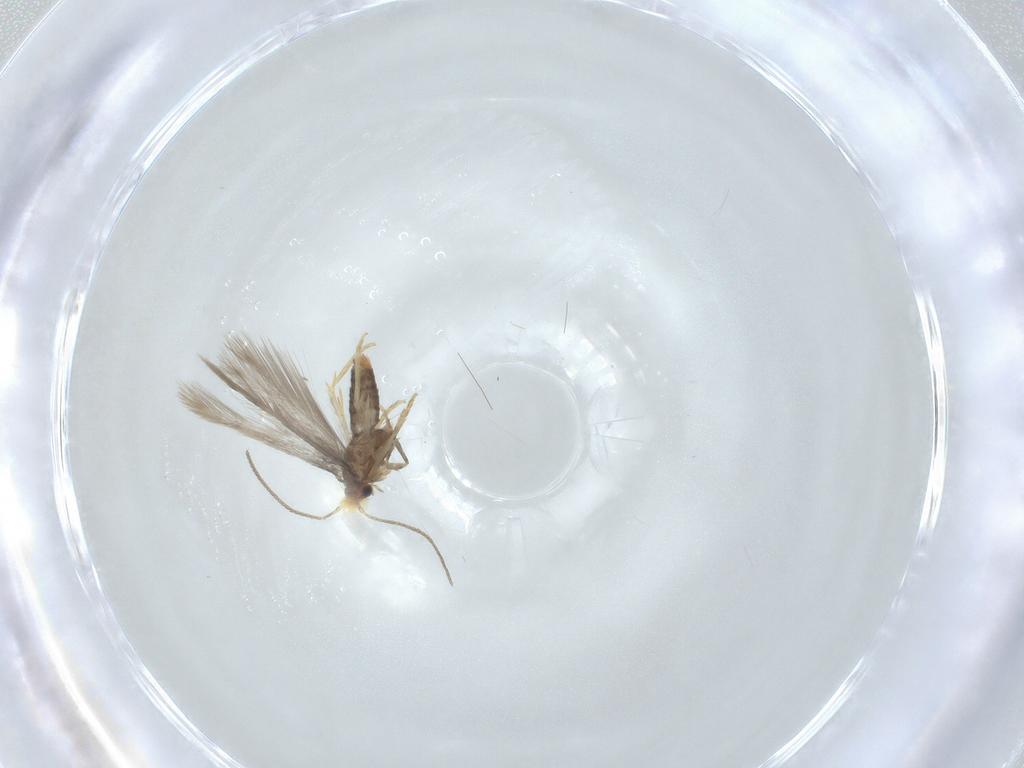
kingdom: Animalia
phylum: Arthropoda
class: Insecta
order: Lepidoptera
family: Nepticulidae
